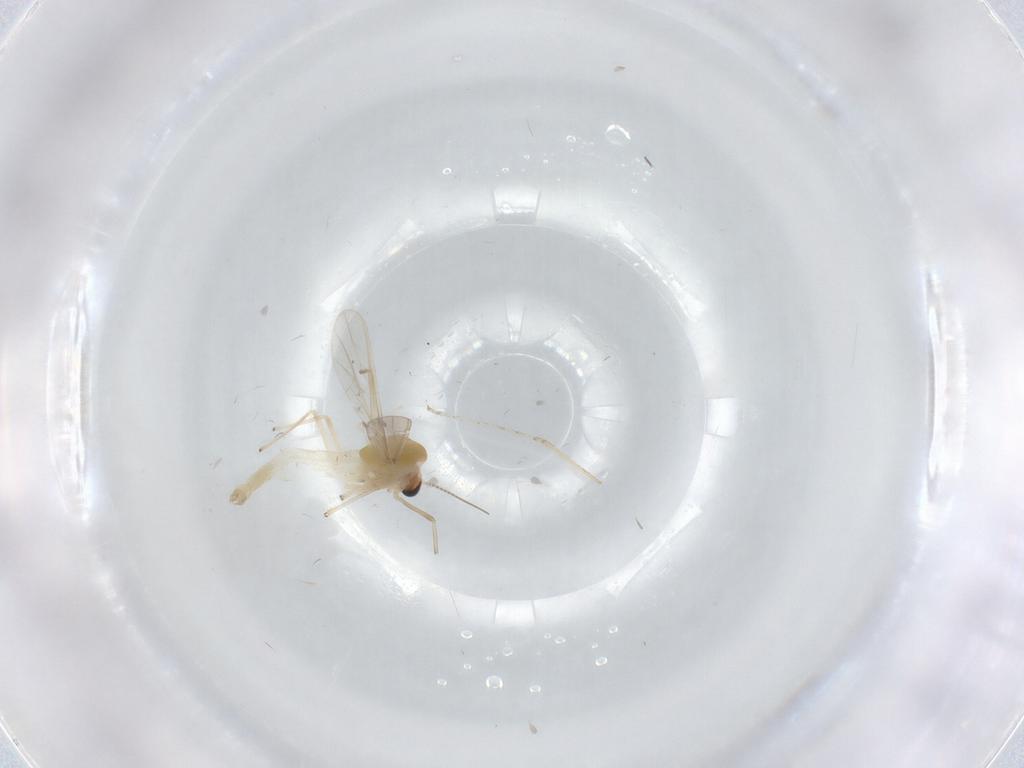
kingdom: Animalia
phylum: Arthropoda
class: Insecta
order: Diptera
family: Chironomidae
